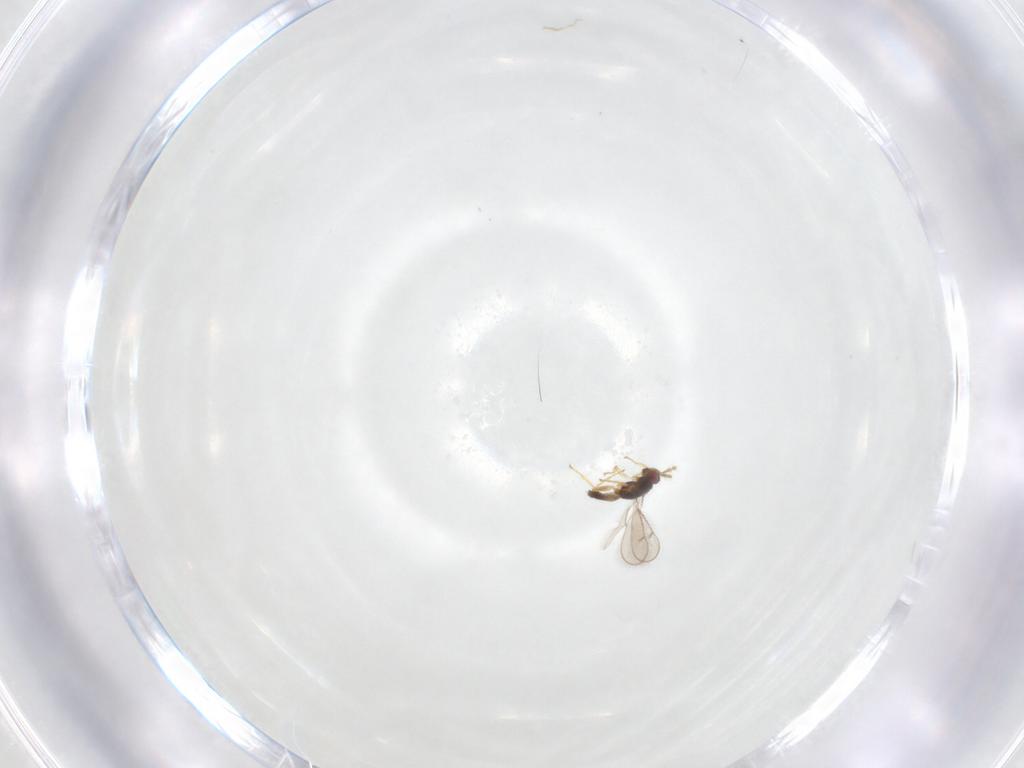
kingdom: Animalia
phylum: Arthropoda
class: Insecta
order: Hymenoptera
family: Eulophidae
